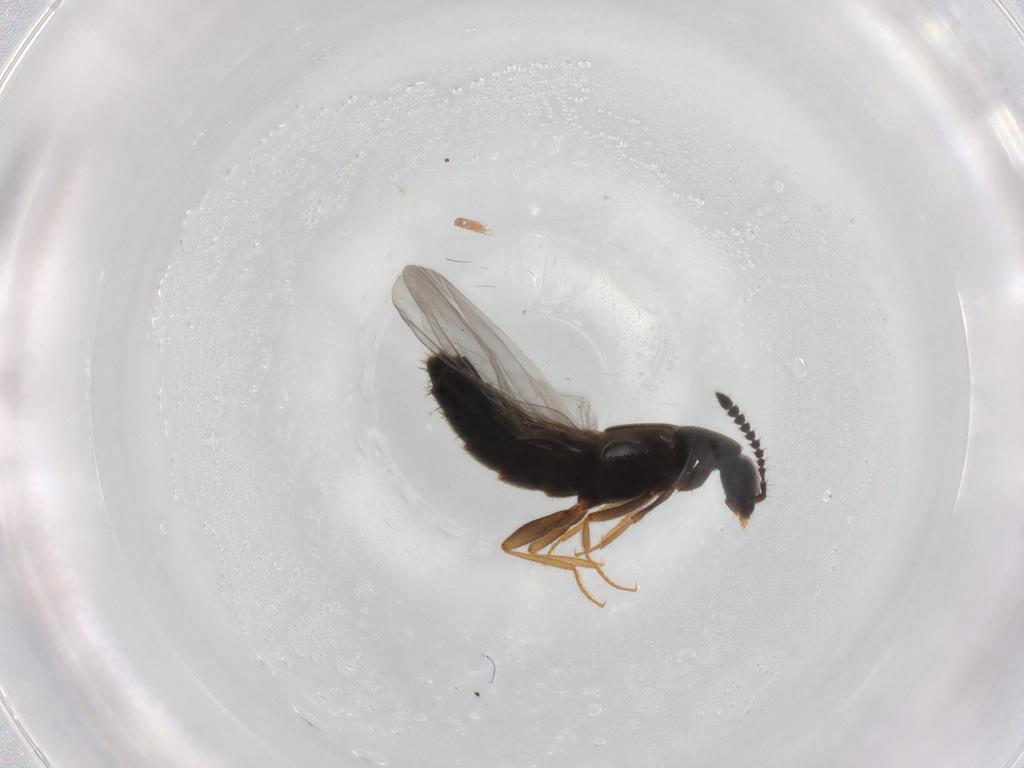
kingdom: Animalia
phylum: Arthropoda
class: Insecta
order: Coleoptera
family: Staphylinidae
